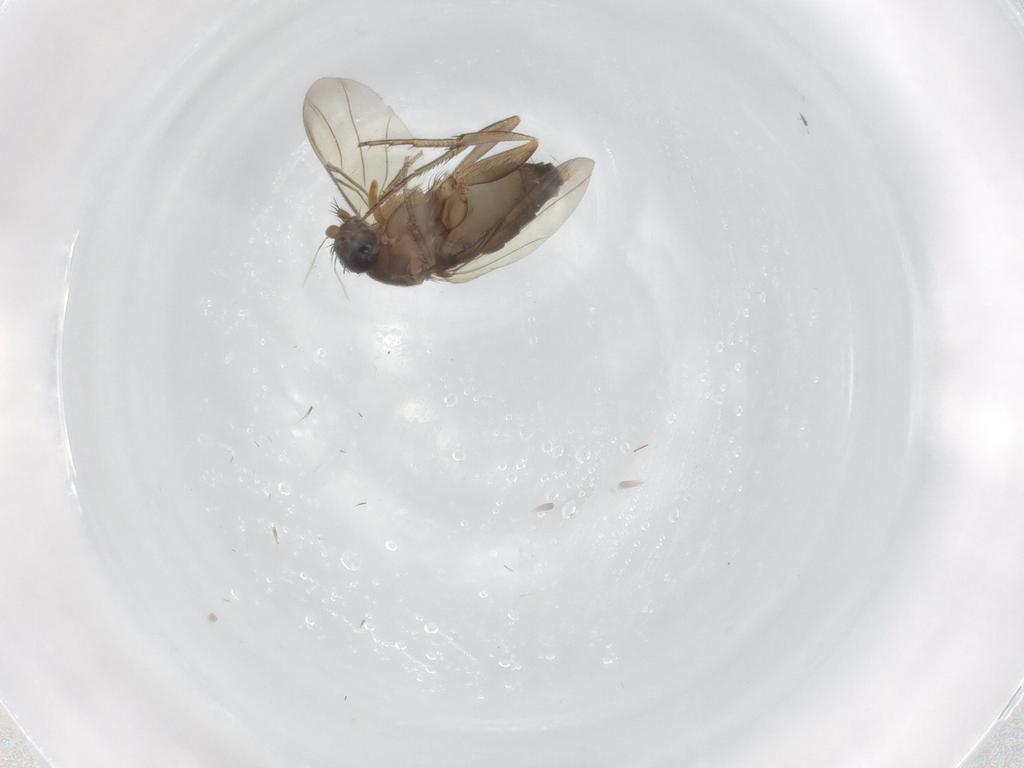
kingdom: Animalia
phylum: Arthropoda
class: Insecta
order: Diptera
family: Phoridae
